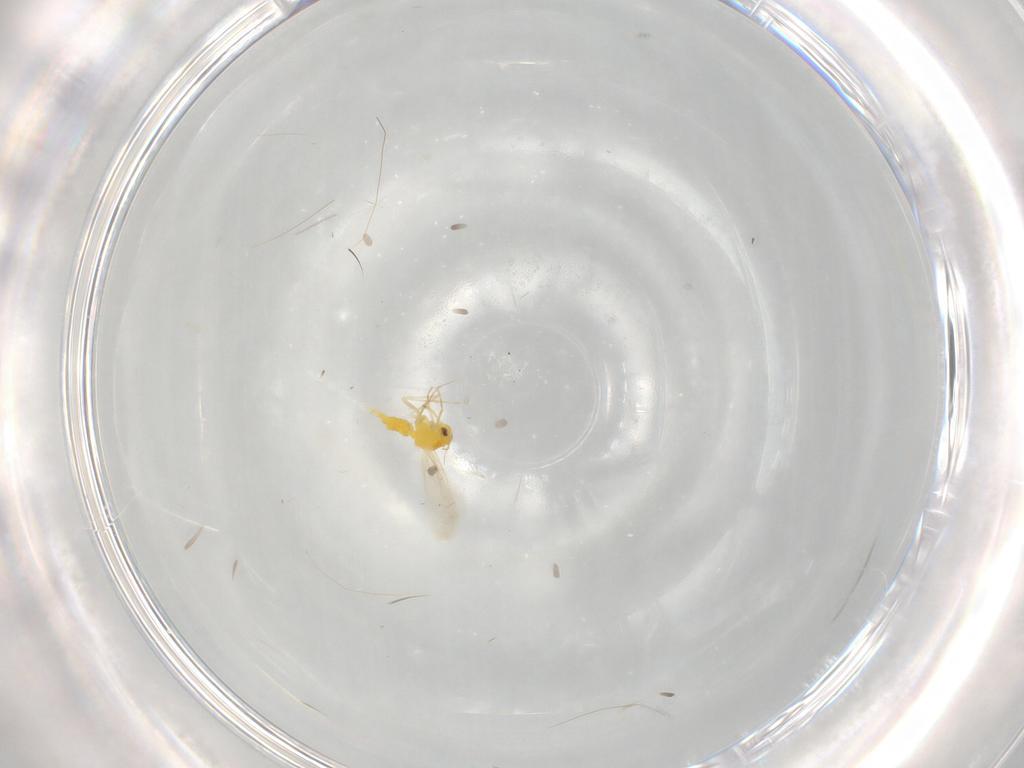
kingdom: Animalia
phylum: Arthropoda
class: Insecta
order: Hemiptera
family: Aleyrodidae
